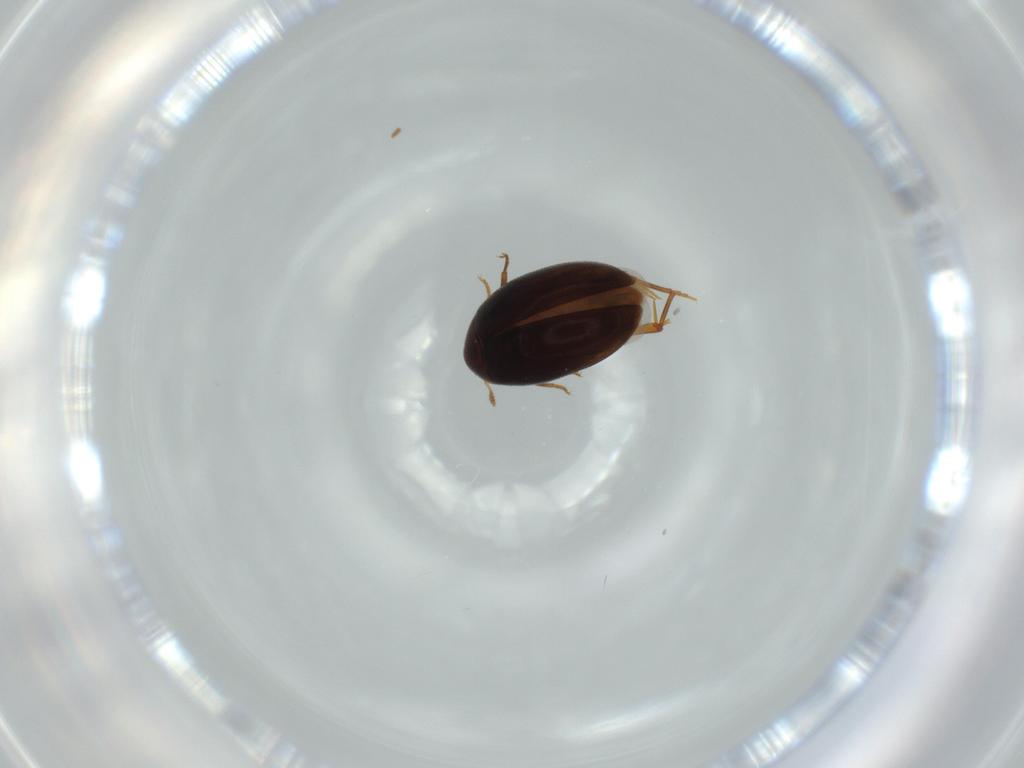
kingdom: Animalia
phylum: Arthropoda
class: Insecta
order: Coleoptera
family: Melandryidae
